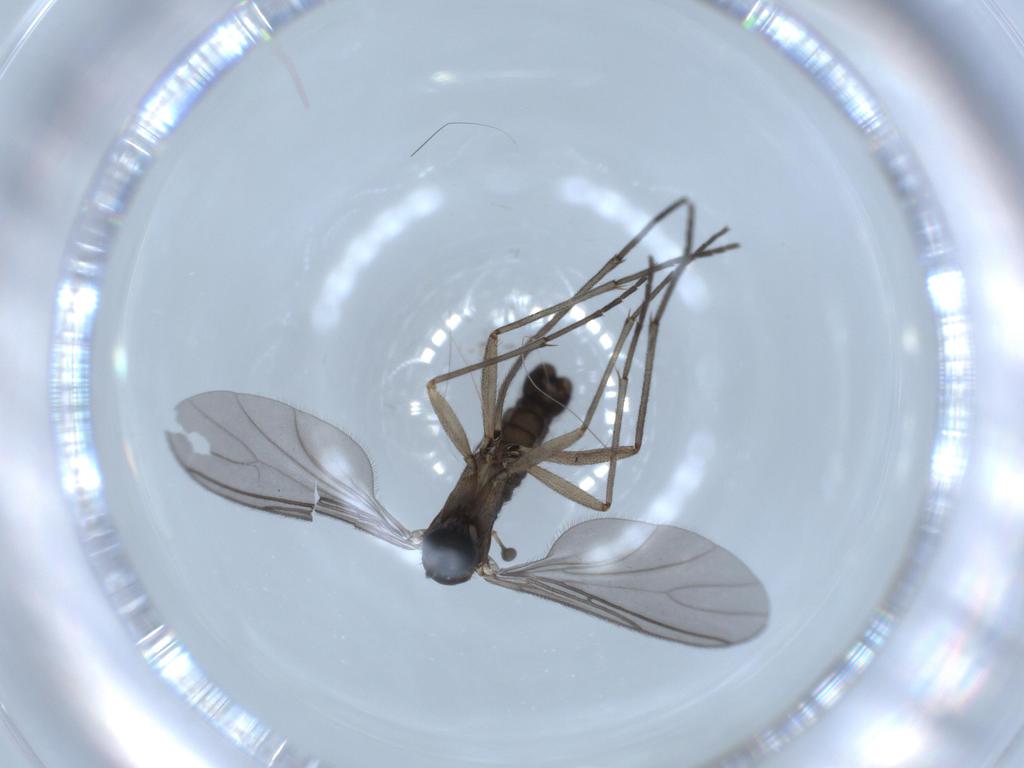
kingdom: Animalia
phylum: Arthropoda
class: Insecta
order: Diptera
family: Sciaridae
